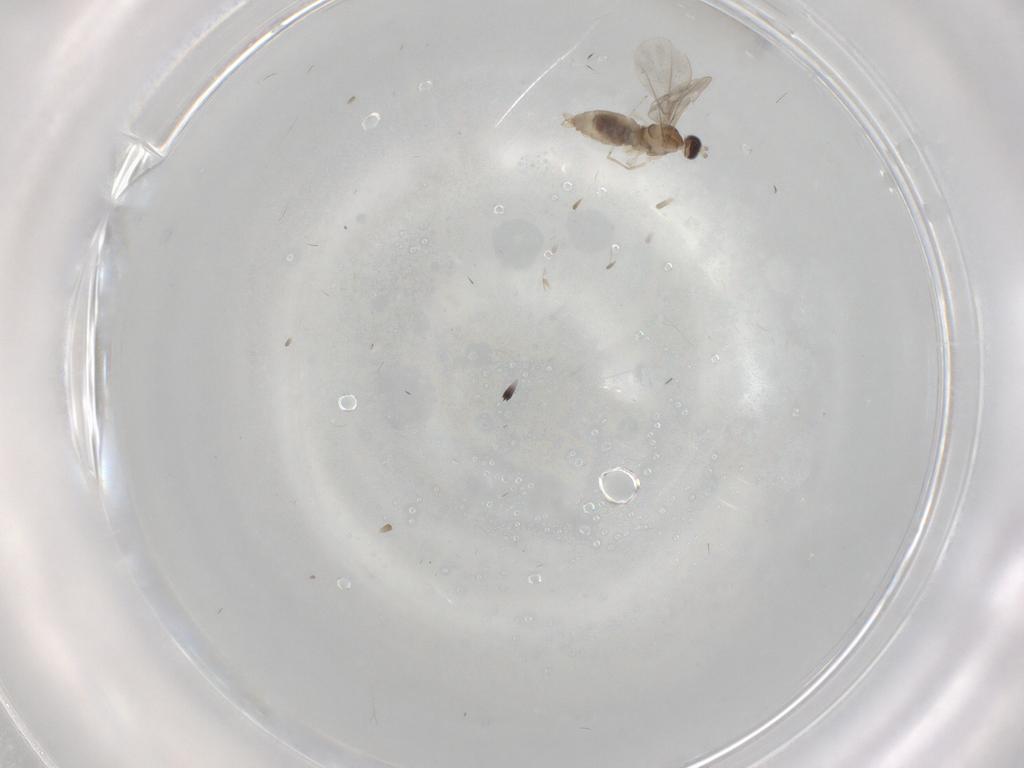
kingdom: Animalia
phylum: Arthropoda
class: Insecta
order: Diptera
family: Cecidomyiidae
